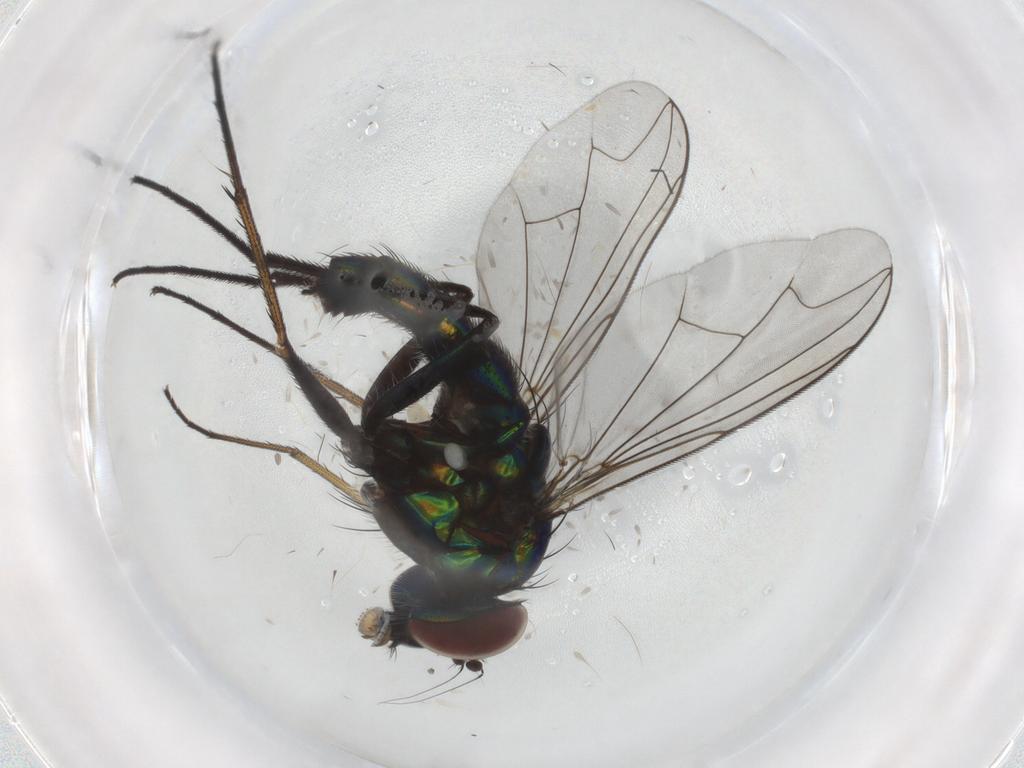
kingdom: Animalia
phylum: Arthropoda
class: Insecta
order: Diptera
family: Dolichopodidae
